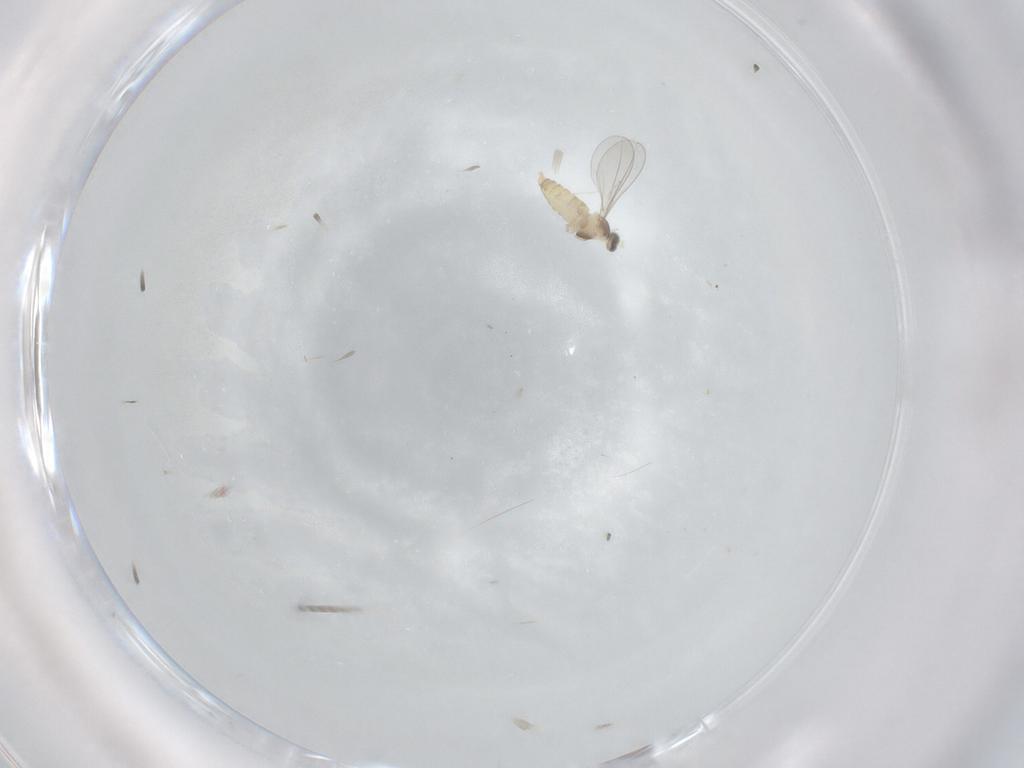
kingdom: Animalia
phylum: Arthropoda
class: Insecta
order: Diptera
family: Cecidomyiidae
